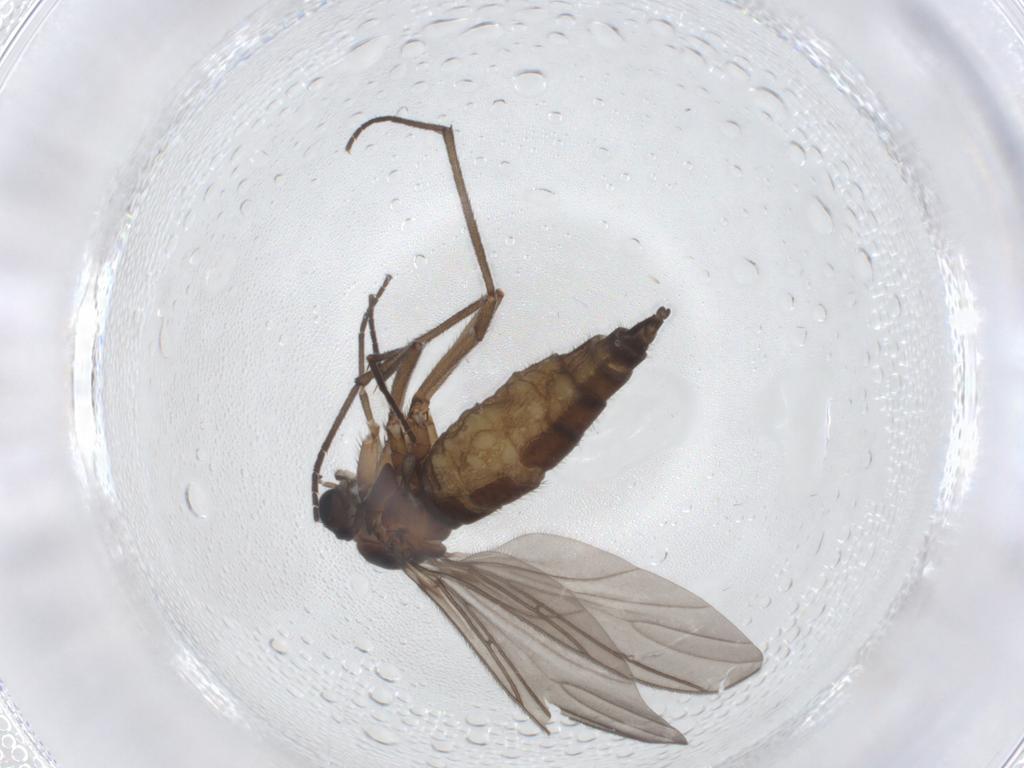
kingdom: Animalia
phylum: Arthropoda
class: Insecta
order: Diptera
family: Sciaridae
